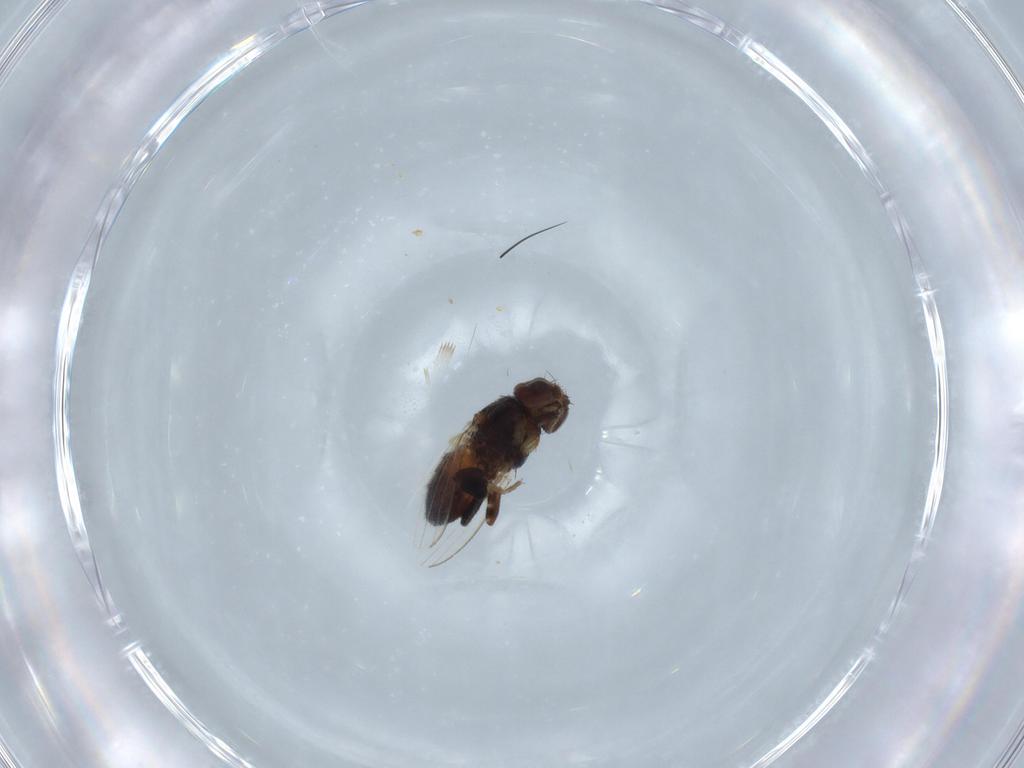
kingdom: Animalia
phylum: Arthropoda
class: Insecta
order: Diptera
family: Milichiidae
